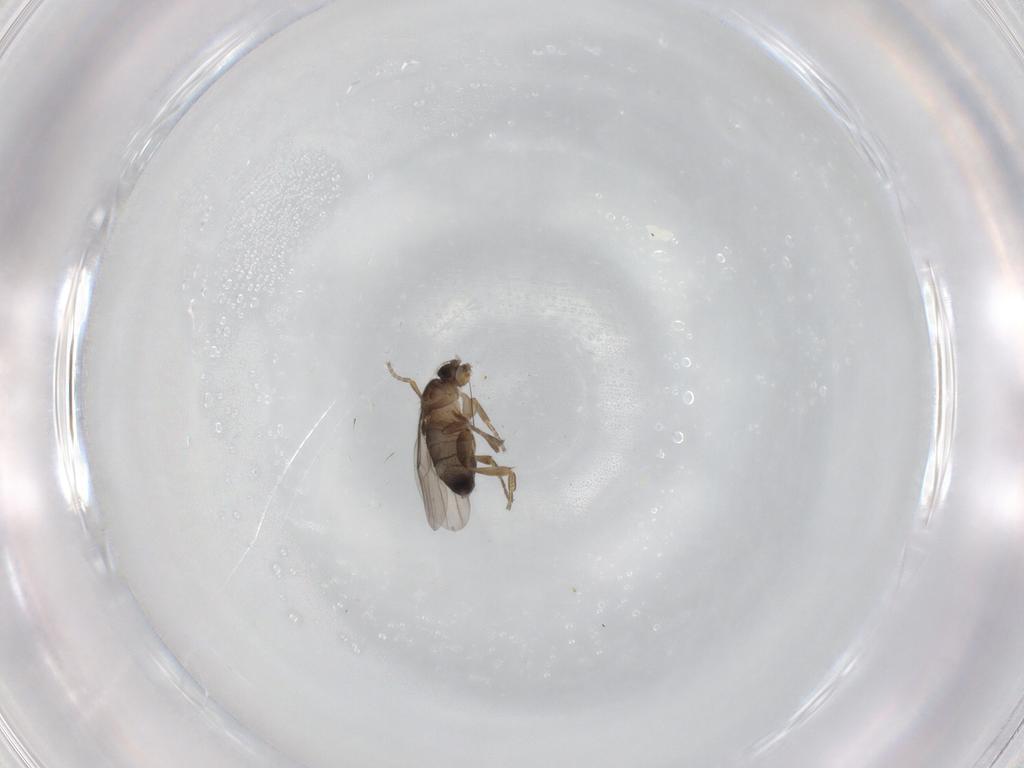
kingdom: Animalia
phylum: Arthropoda
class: Insecta
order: Diptera
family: Phoridae
